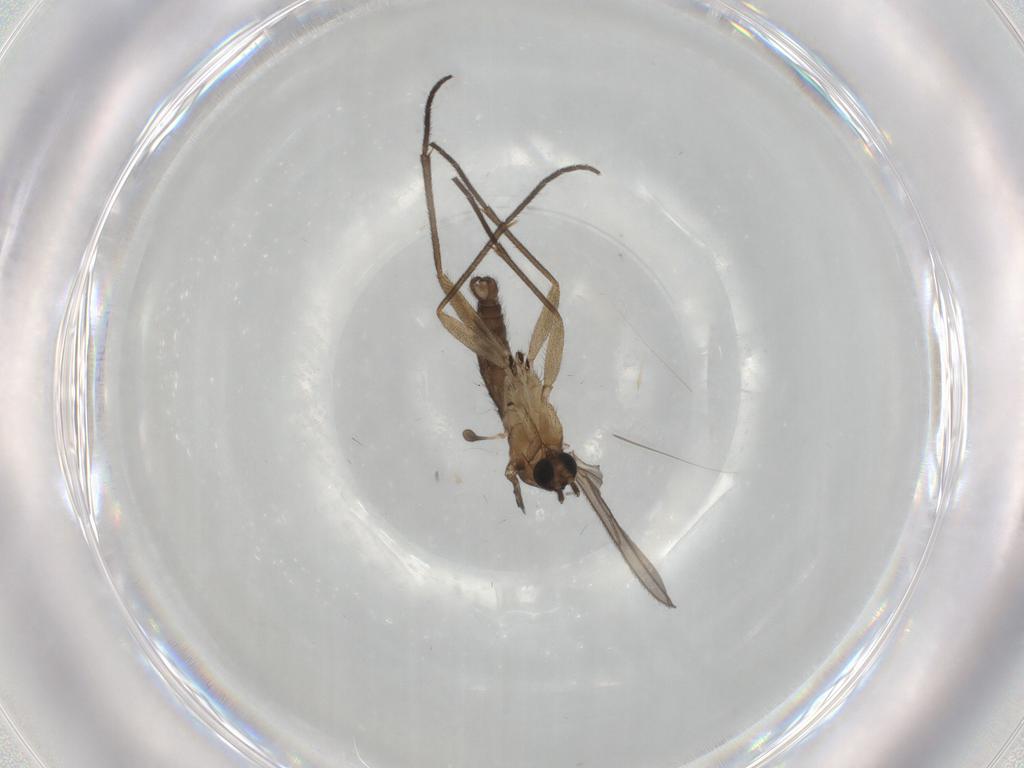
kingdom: Animalia
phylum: Arthropoda
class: Insecta
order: Diptera
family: Sciaridae
